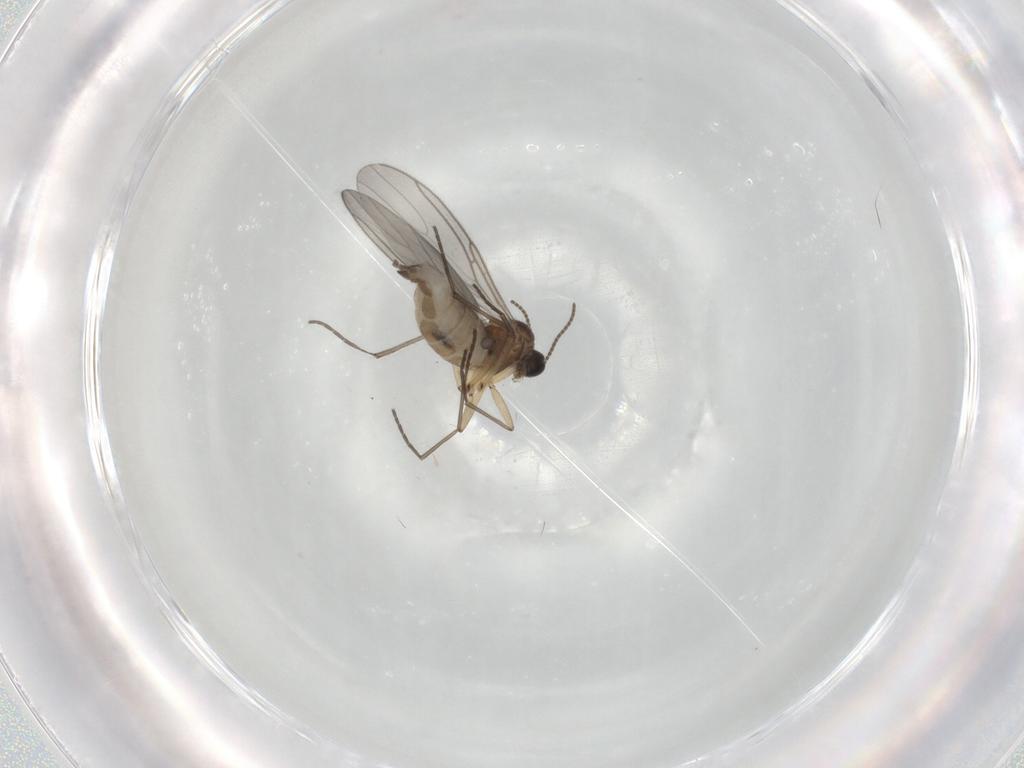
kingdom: Animalia
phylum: Arthropoda
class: Insecta
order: Diptera
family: Sciaridae
